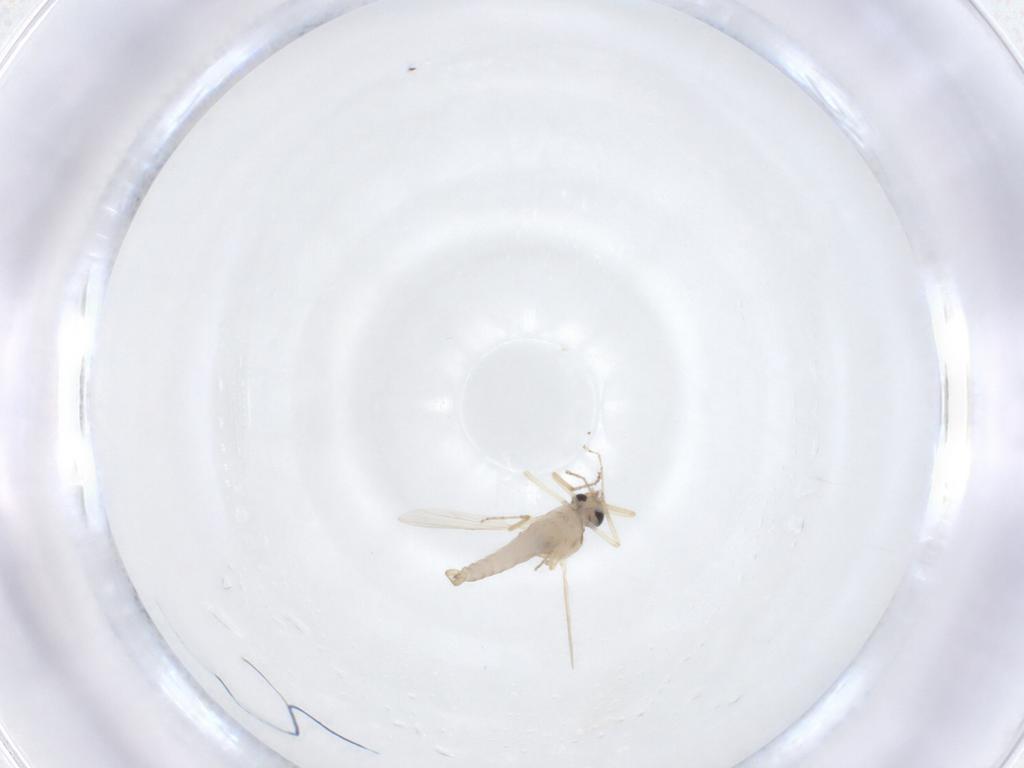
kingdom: Animalia
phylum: Arthropoda
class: Insecta
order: Diptera
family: Ceratopogonidae
